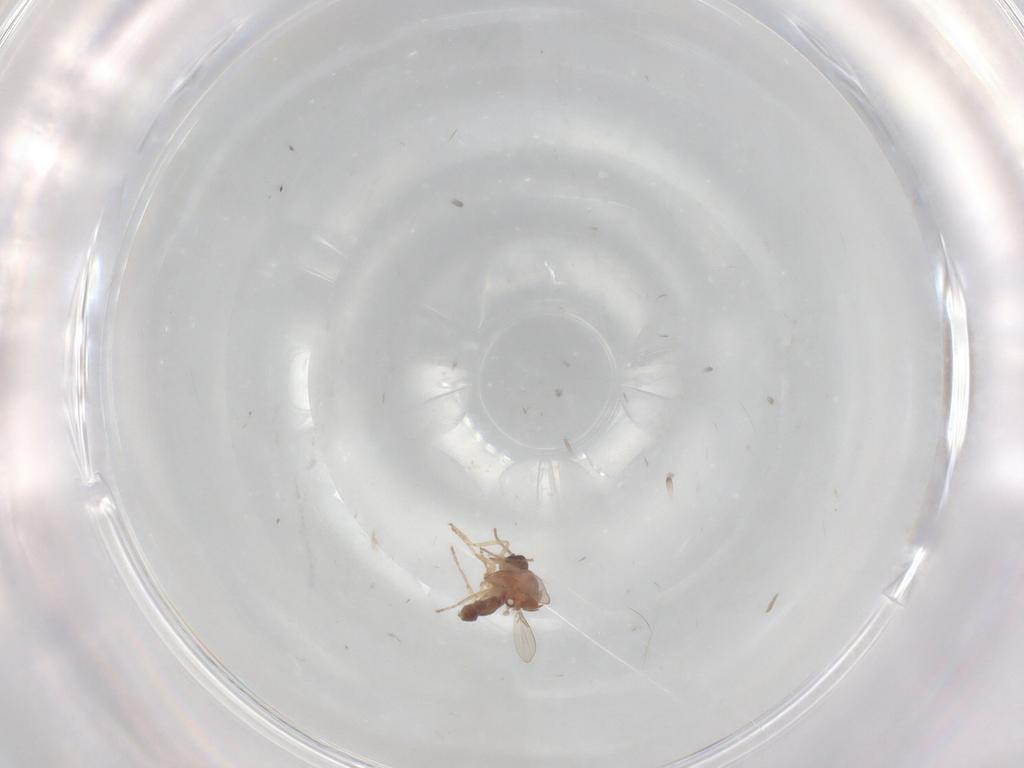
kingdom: Animalia
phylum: Arthropoda
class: Insecta
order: Diptera
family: Ceratopogonidae
